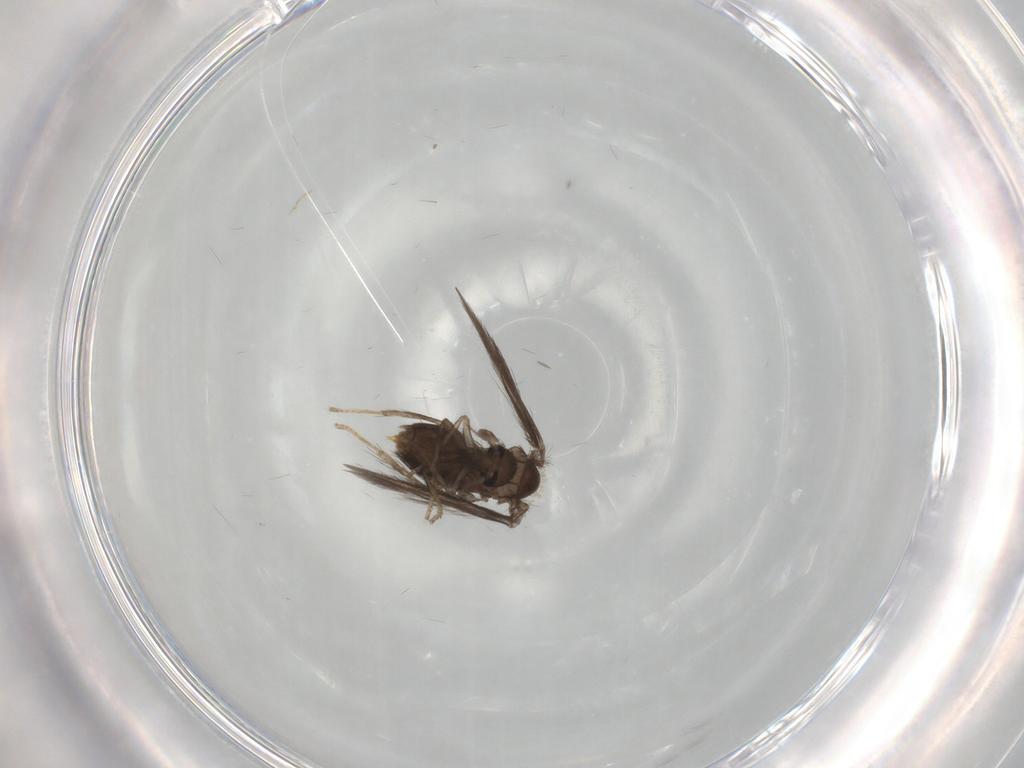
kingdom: Animalia
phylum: Arthropoda
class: Insecta
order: Diptera
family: Psychodidae
